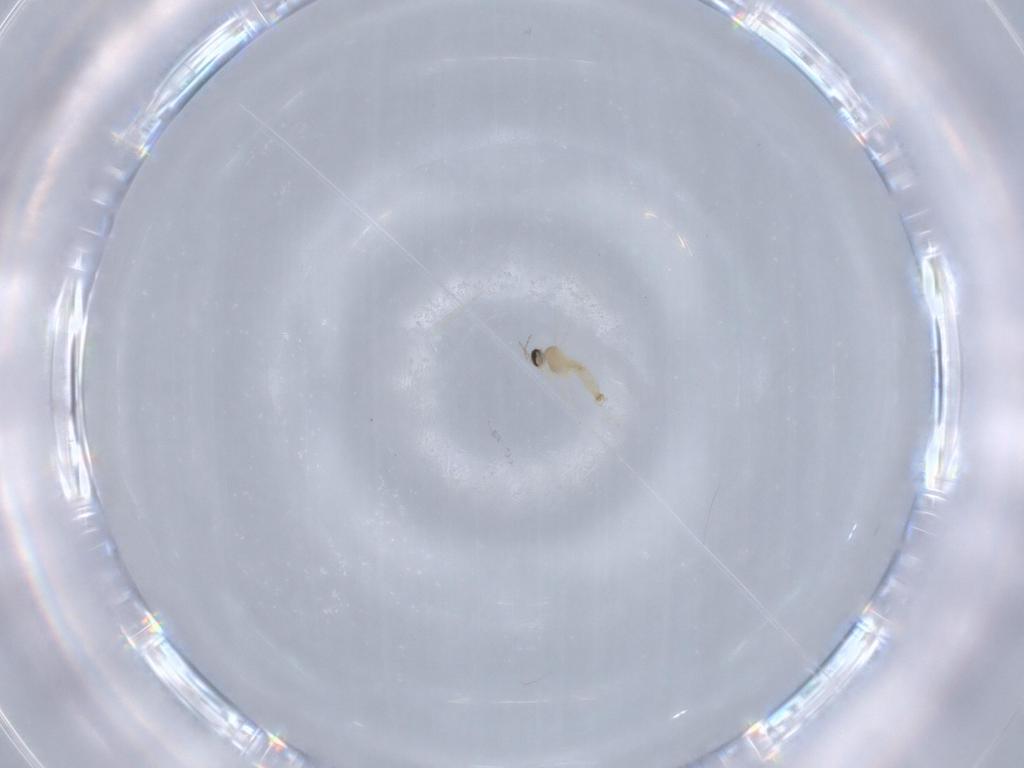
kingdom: Animalia
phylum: Arthropoda
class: Insecta
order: Diptera
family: Cecidomyiidae
